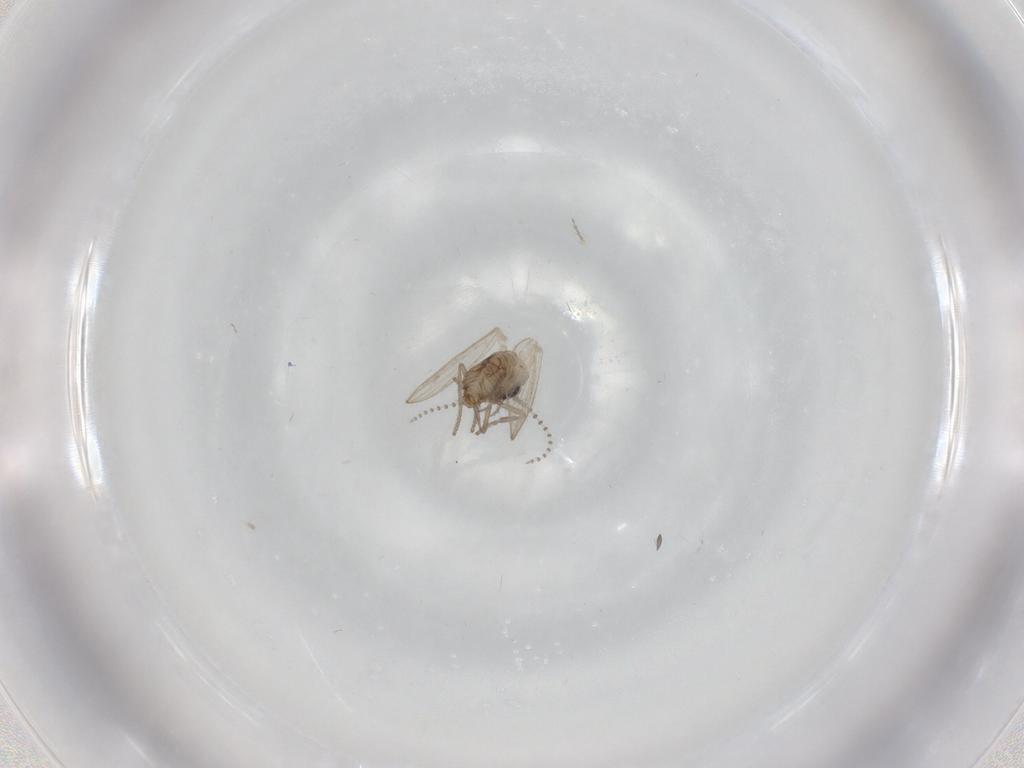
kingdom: Animalia
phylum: Arthropoda
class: Insecta
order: Diptera
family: Psychodidae
